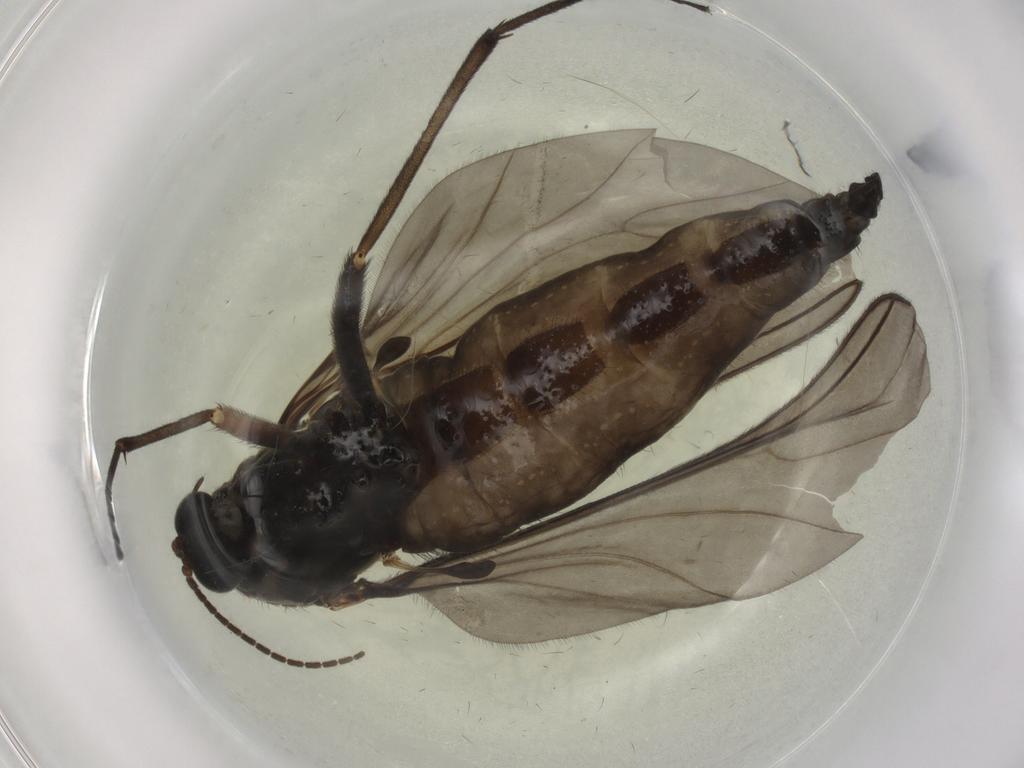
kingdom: Animalia
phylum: Arthropoda
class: Insecta
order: Diptera
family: Sciaridae
